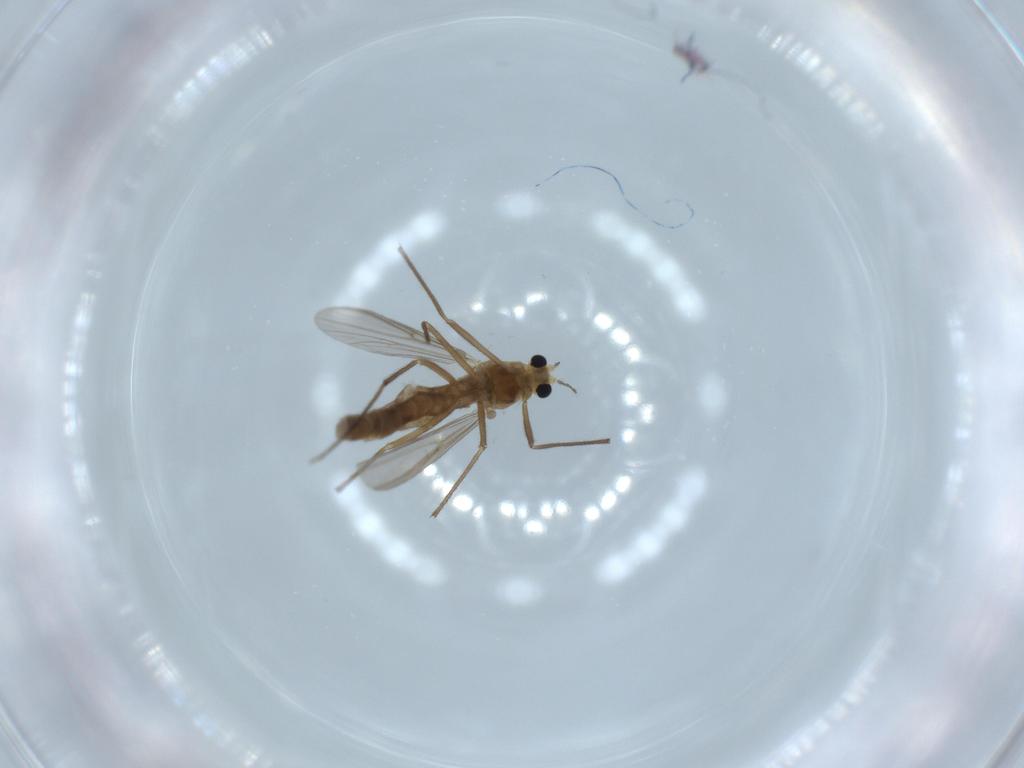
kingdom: Animalia
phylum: Arthropoda
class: Insecta
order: Diptera
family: Chironomidae
